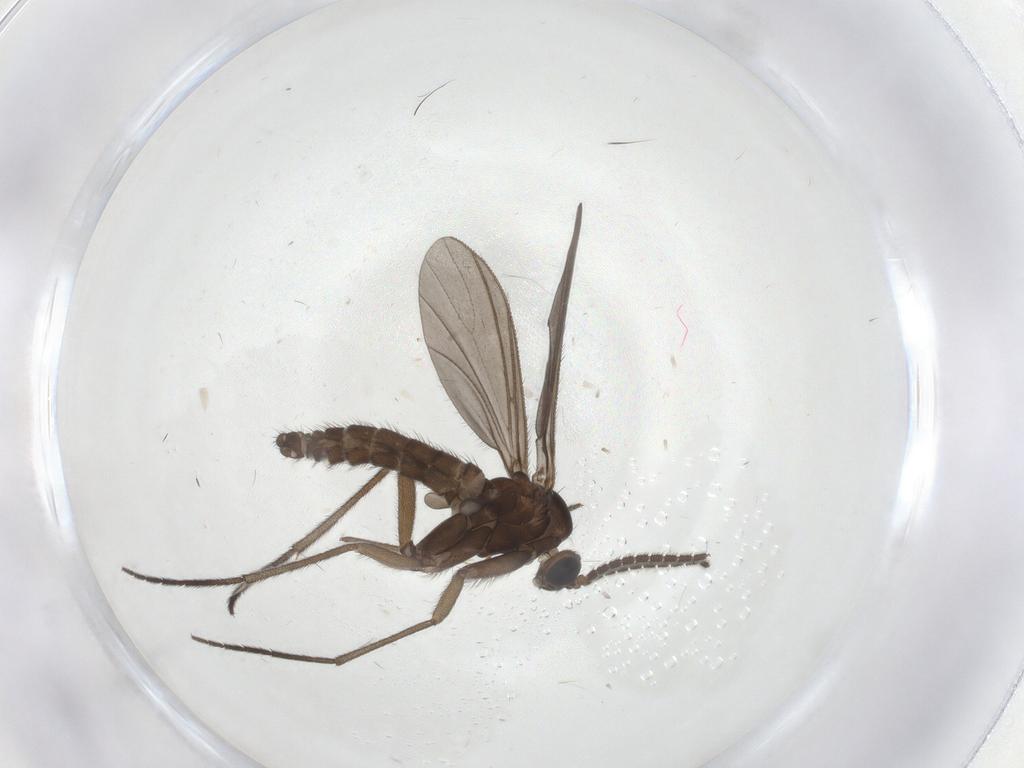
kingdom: Animalia
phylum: Arthropoda
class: Insecta
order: Diptera
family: Sciaridae
